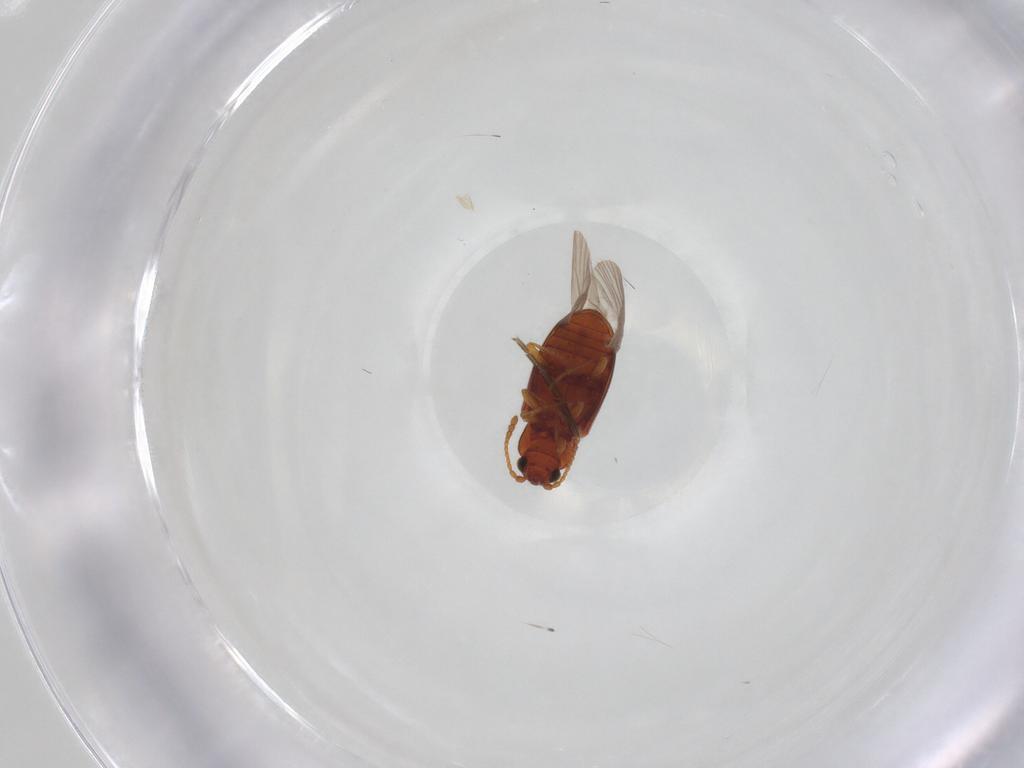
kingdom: Animalia
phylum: Arthropoda
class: Insecta
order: Coleoptera
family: Cryptophagidae
